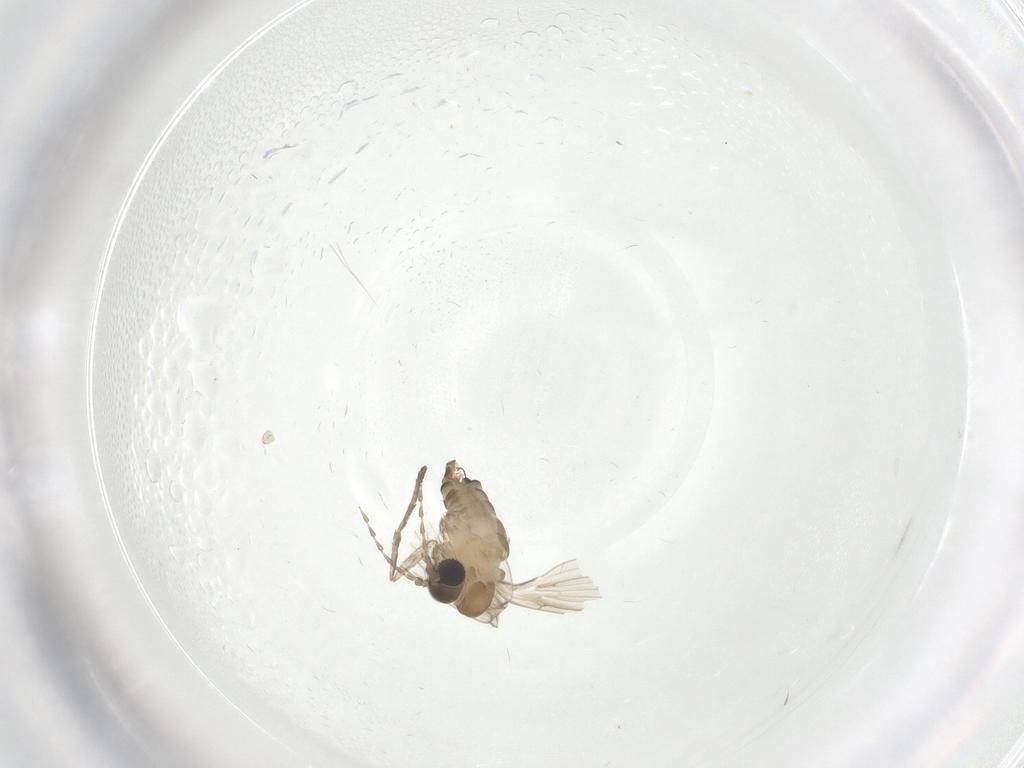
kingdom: Animalia
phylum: Arthropoda
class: Insecta
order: Diptera
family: Psychodidae
